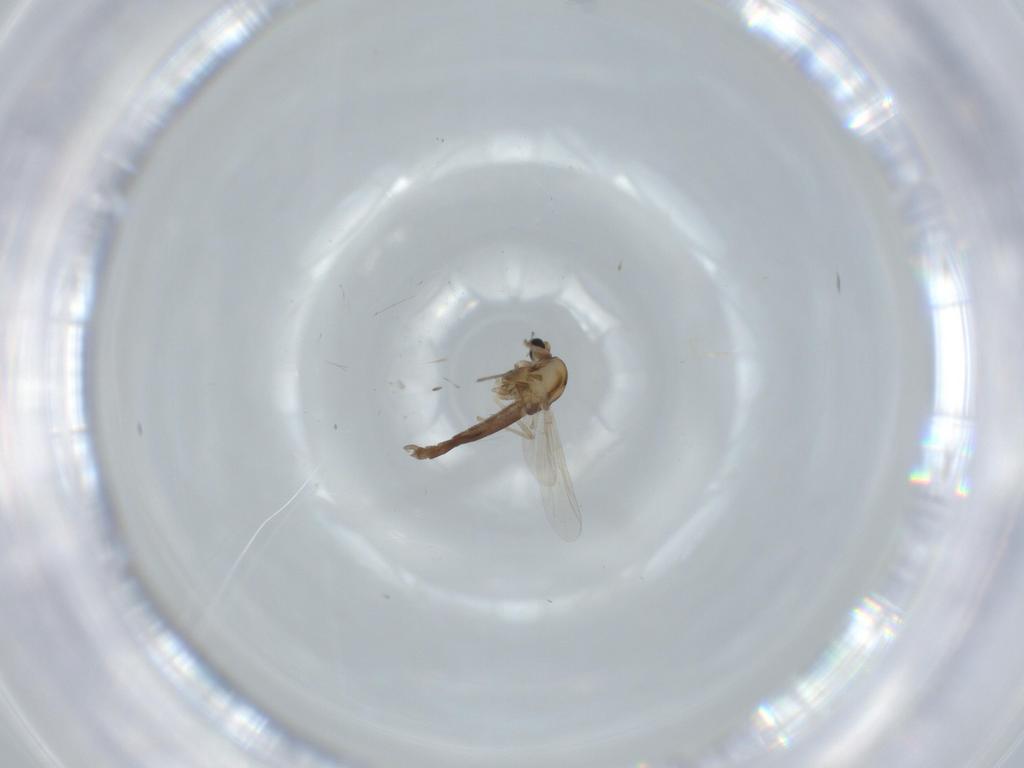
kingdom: Animalia
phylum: Arthropoda
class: Insecta
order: Diptera
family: Chironomidae
